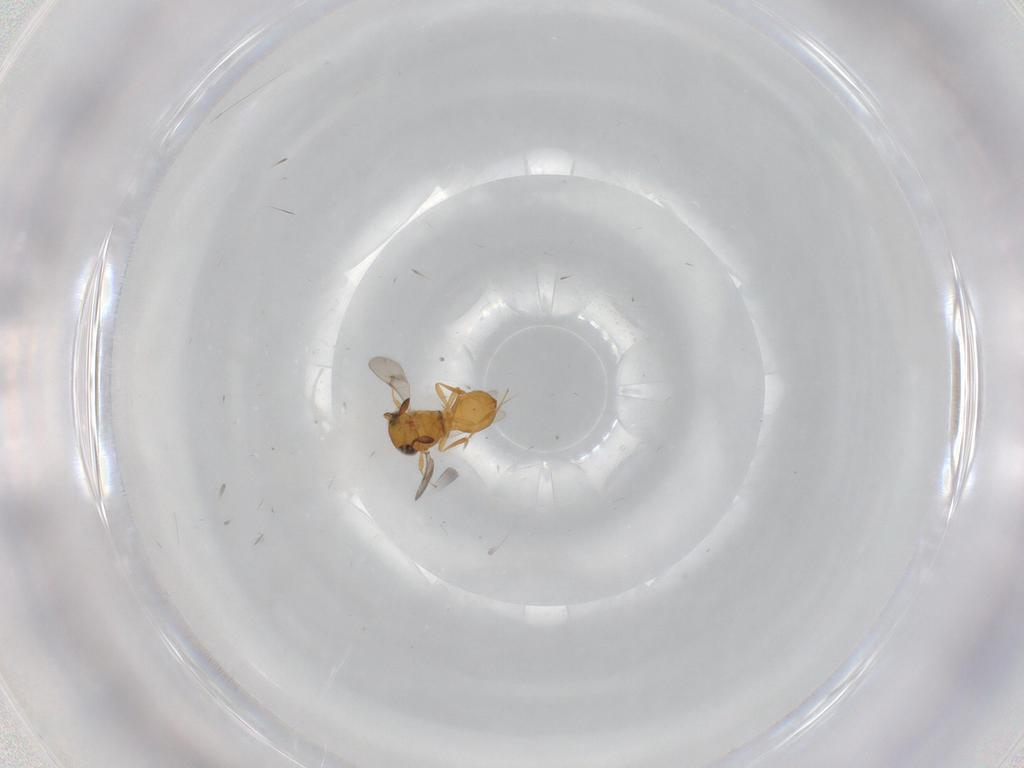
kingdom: Animalia
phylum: Arthropoda
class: Insecta
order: Hymenoptera
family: Scelionidae
